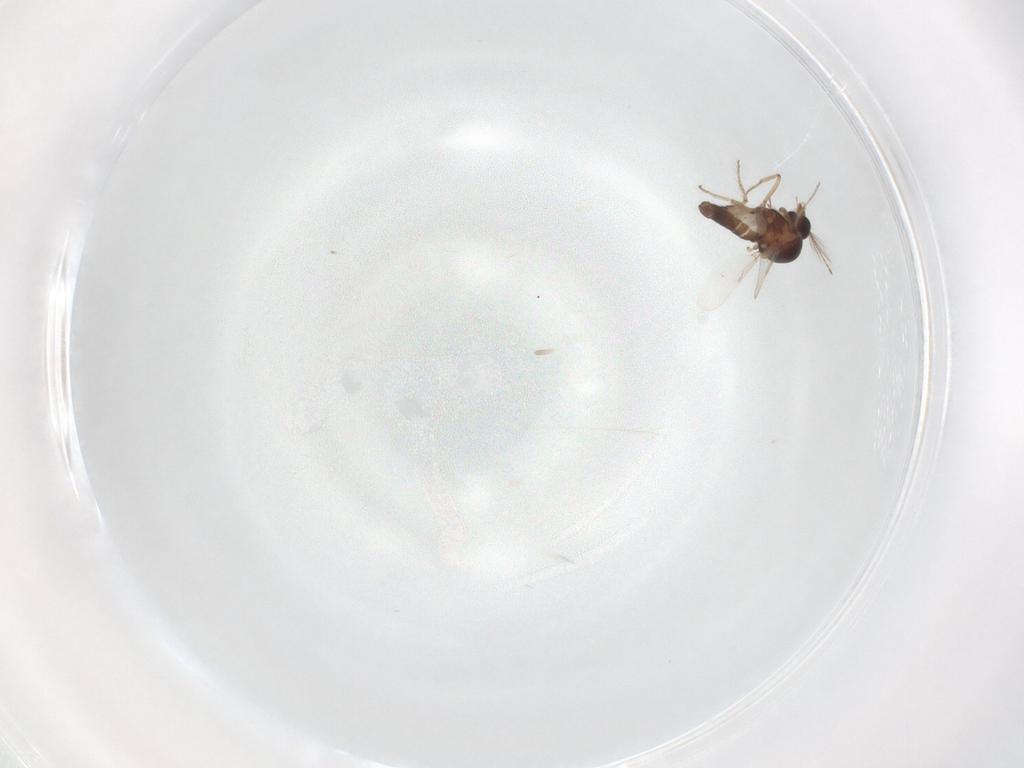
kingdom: Animalia
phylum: Arthropoda
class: Insecta
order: Diptera
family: Ceratopogonidae
